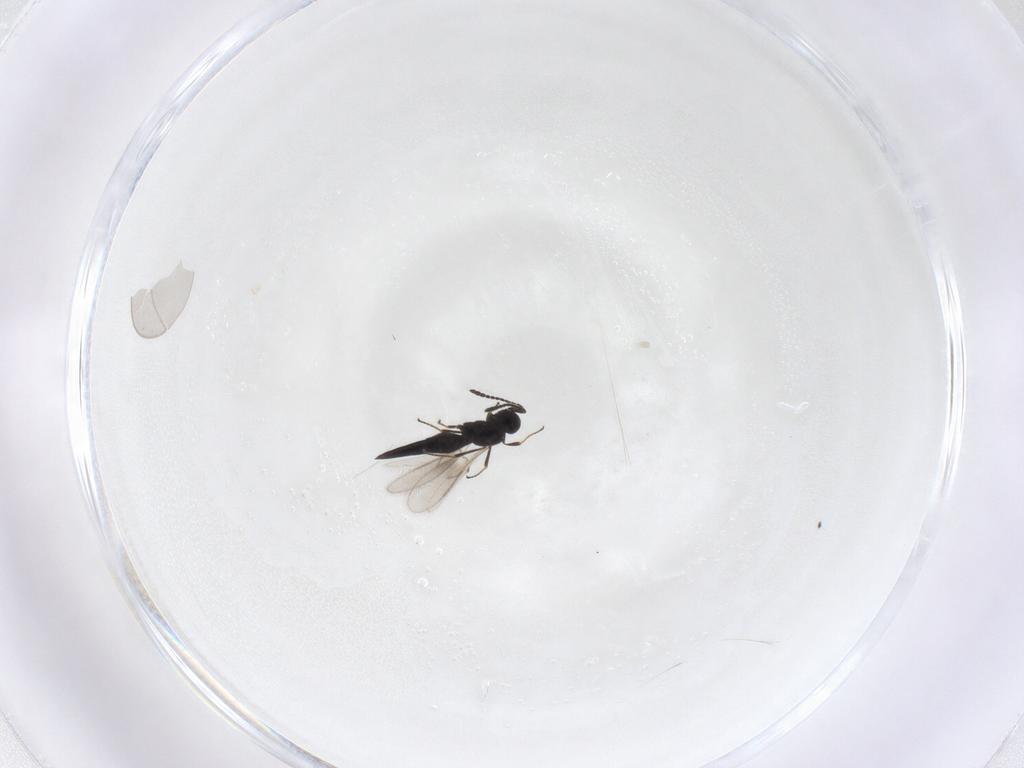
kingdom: Animalia
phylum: Arthropoda
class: Insecta
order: Hymenoptera
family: Scelionidae
